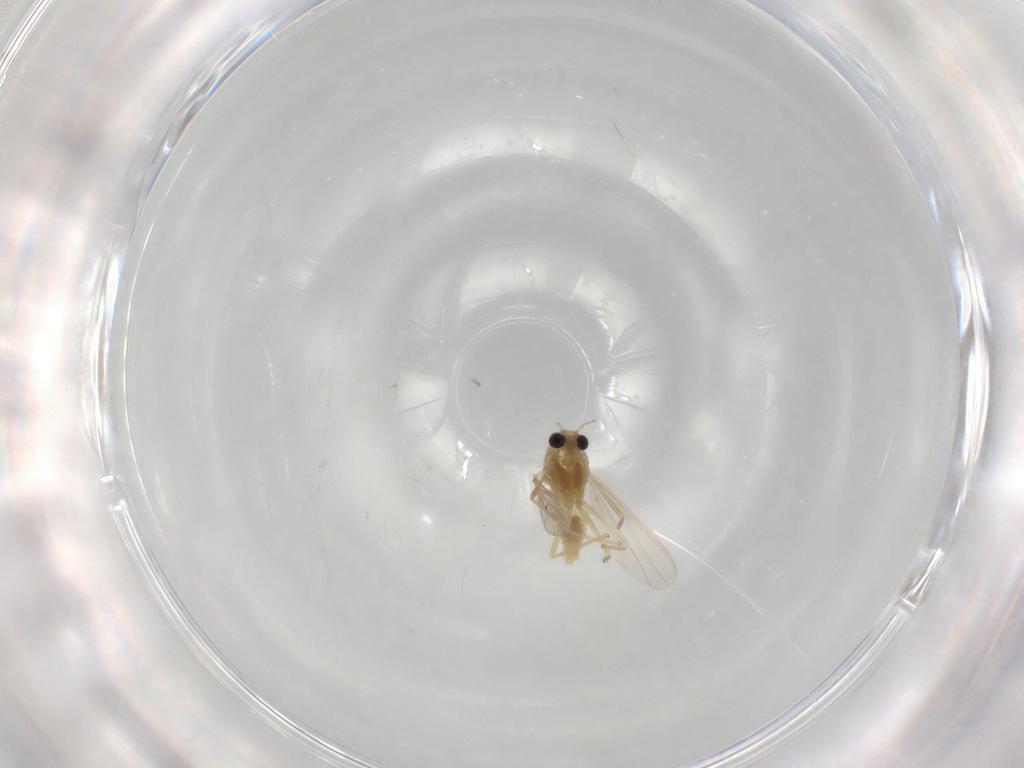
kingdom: Animalia
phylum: Arthropoda
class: Insecta
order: Diptera
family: Chironomidae
